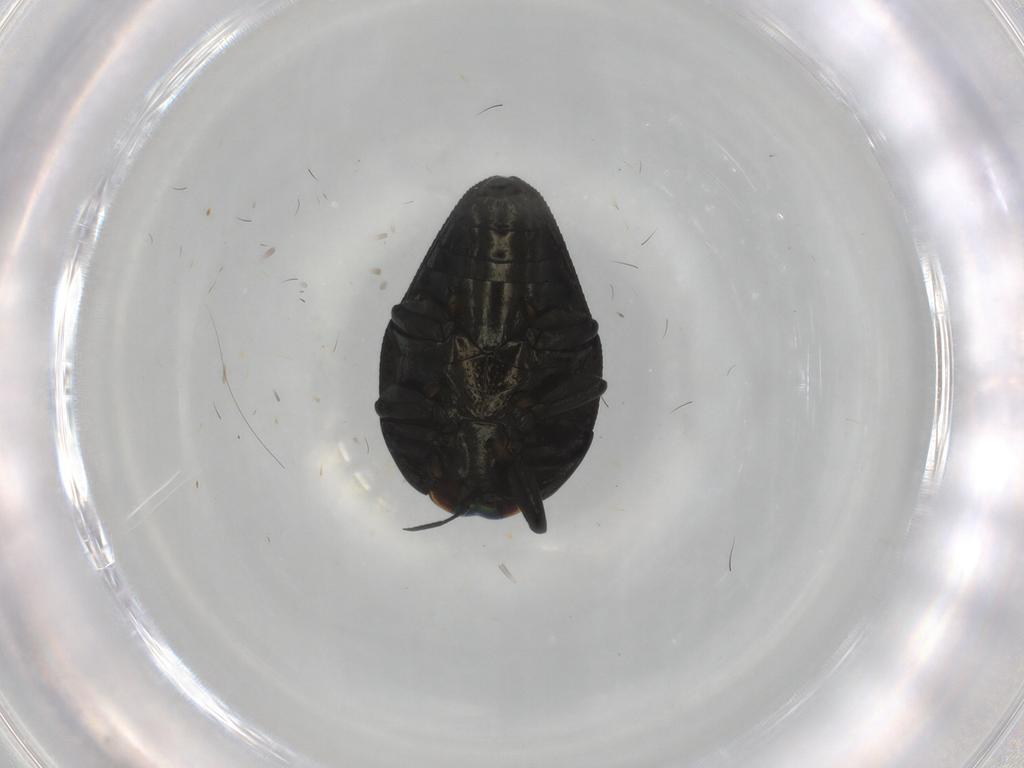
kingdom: Animalia
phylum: Arthropoda
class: Insecta
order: Coleoptera
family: Buprestidae
